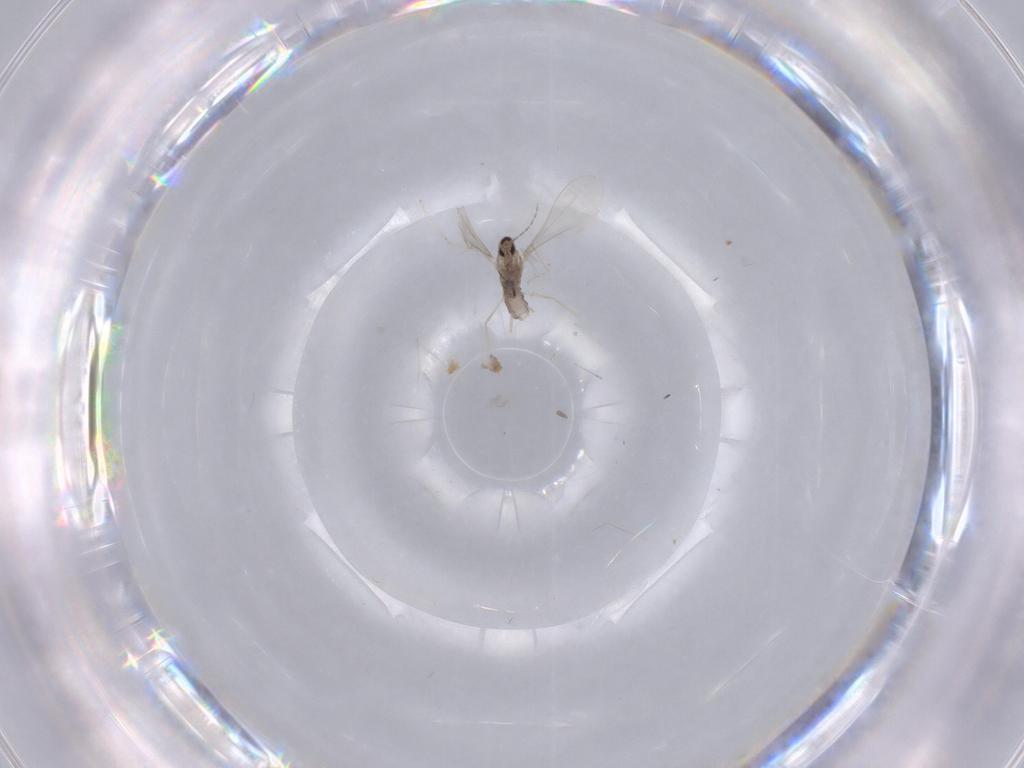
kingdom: Animalia
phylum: Arthropoda
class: Insecta
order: Diptera
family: Cecidomyiidae
